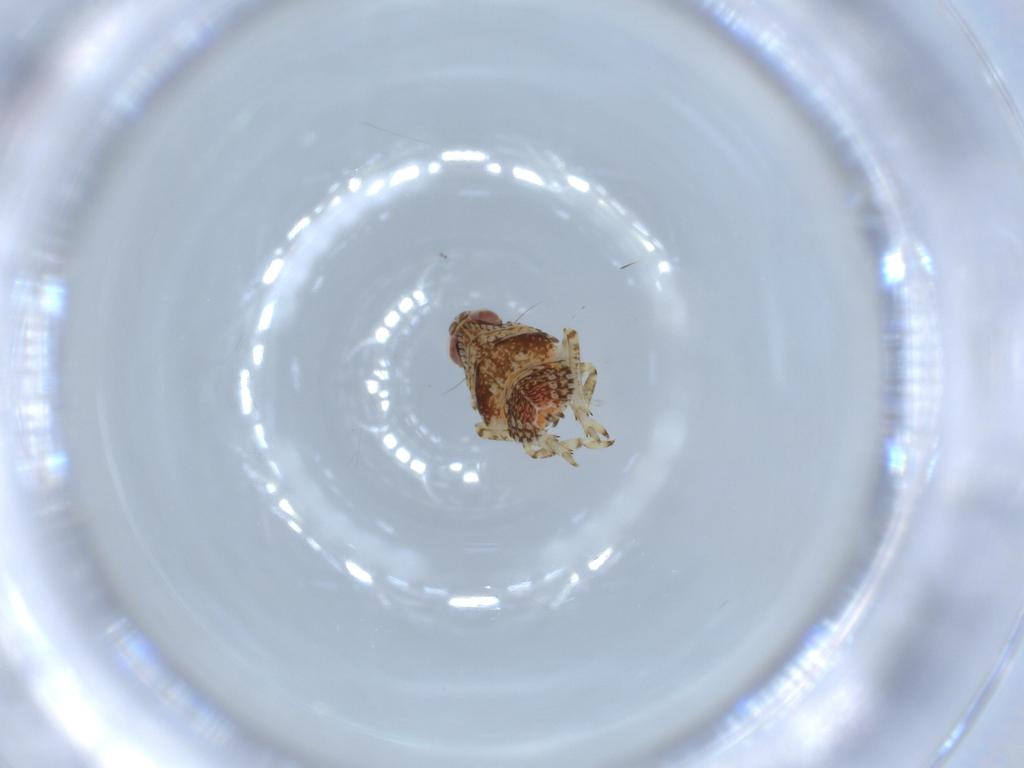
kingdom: Animalia
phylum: Arthropoda
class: Insecta
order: Hemiptera
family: Issidae
